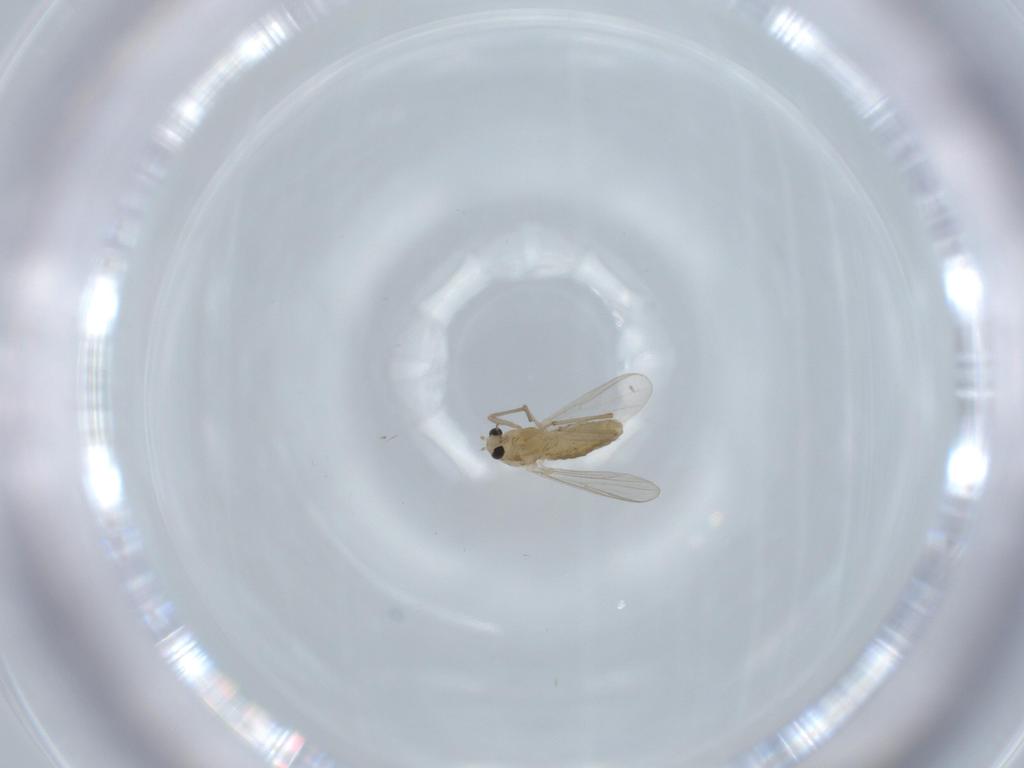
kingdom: Animalia
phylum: Arthropoda
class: Insecta
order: Diptera
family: Chironomidae
